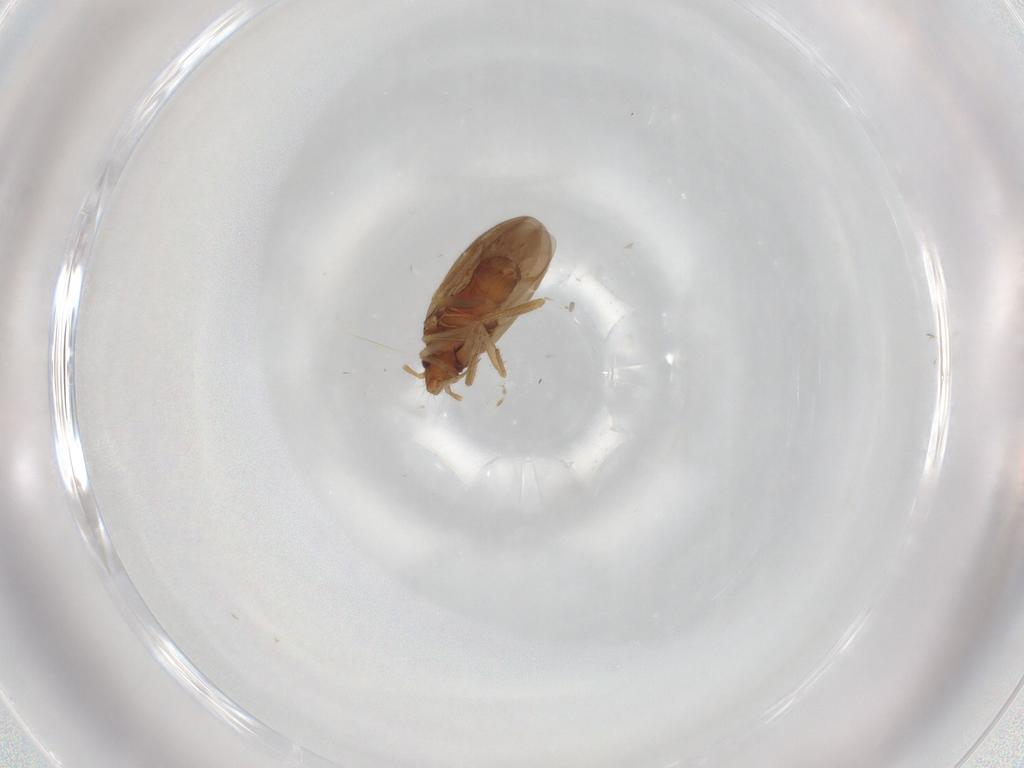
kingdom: Animalia
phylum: Arthropoda
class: Insecta
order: Hemiptera
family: Ceratocombidae
